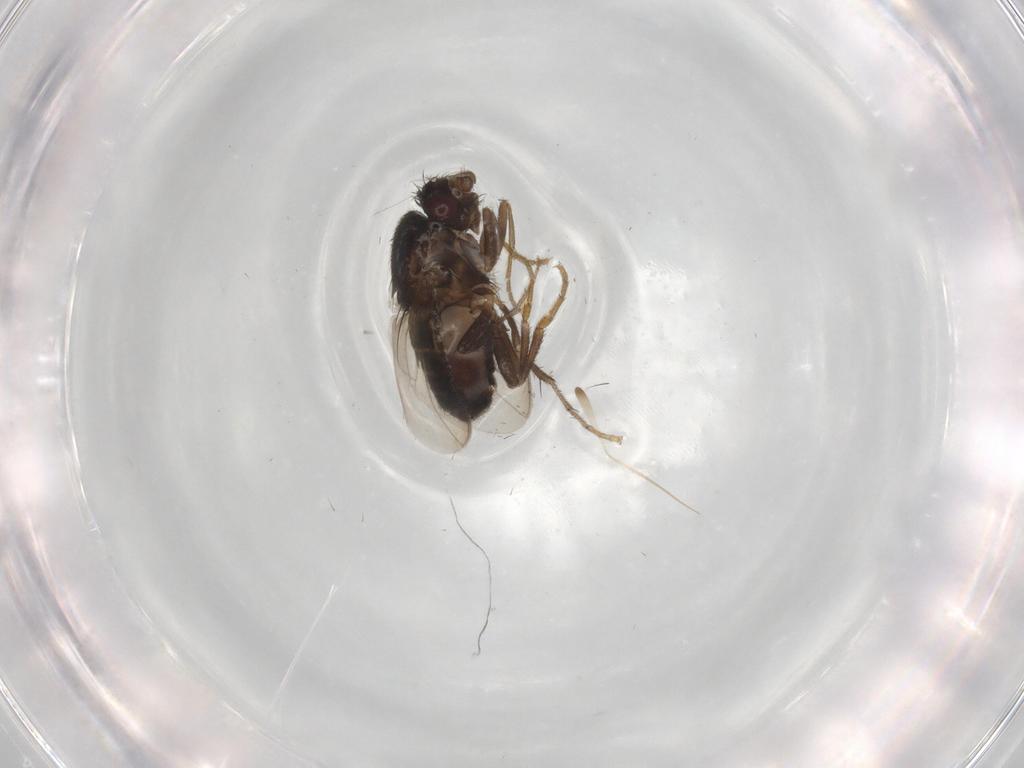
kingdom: Animalia
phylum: Arthropoda
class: Insecta
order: Diptera
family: Sphaeroceridae
